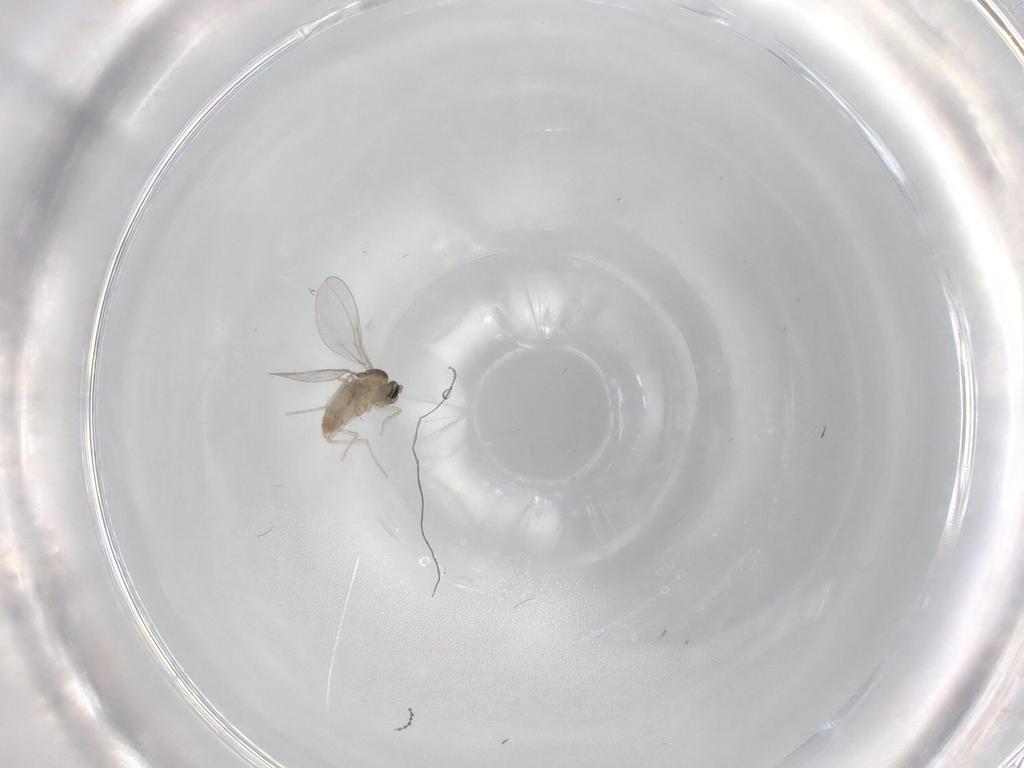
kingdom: Animalia
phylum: Arthropoda
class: Insecta
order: Diptera
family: Cecidomyiidae
